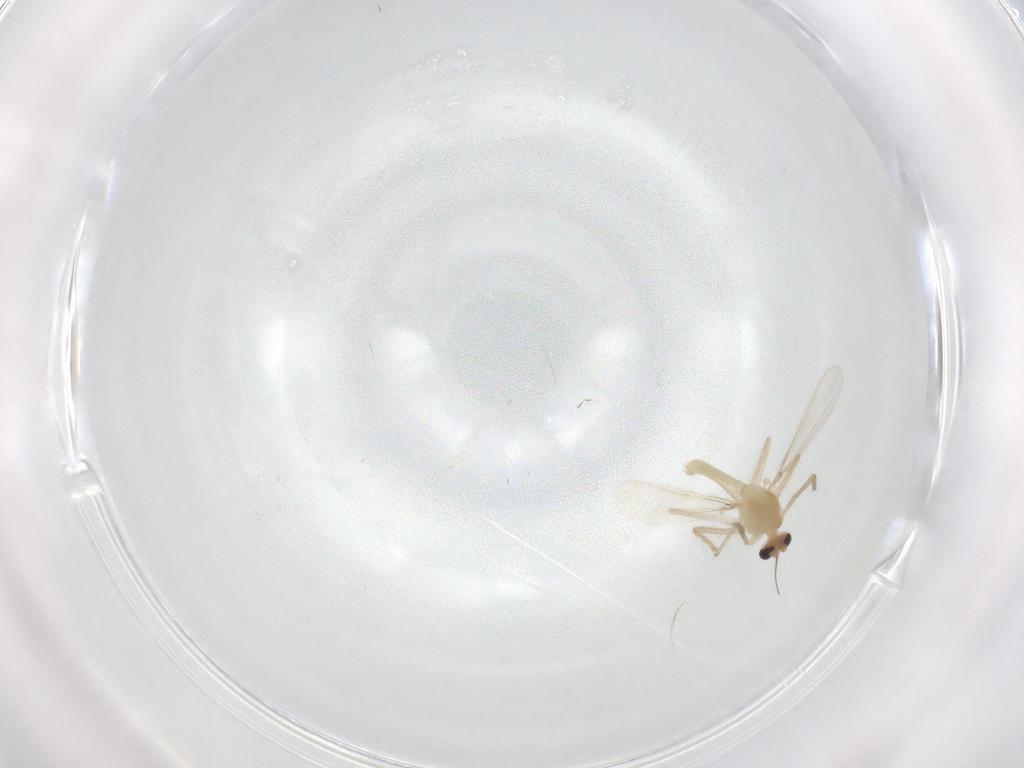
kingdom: Animalia
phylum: Arthropoda
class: Insecta
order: Diptera
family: Chironomidae
